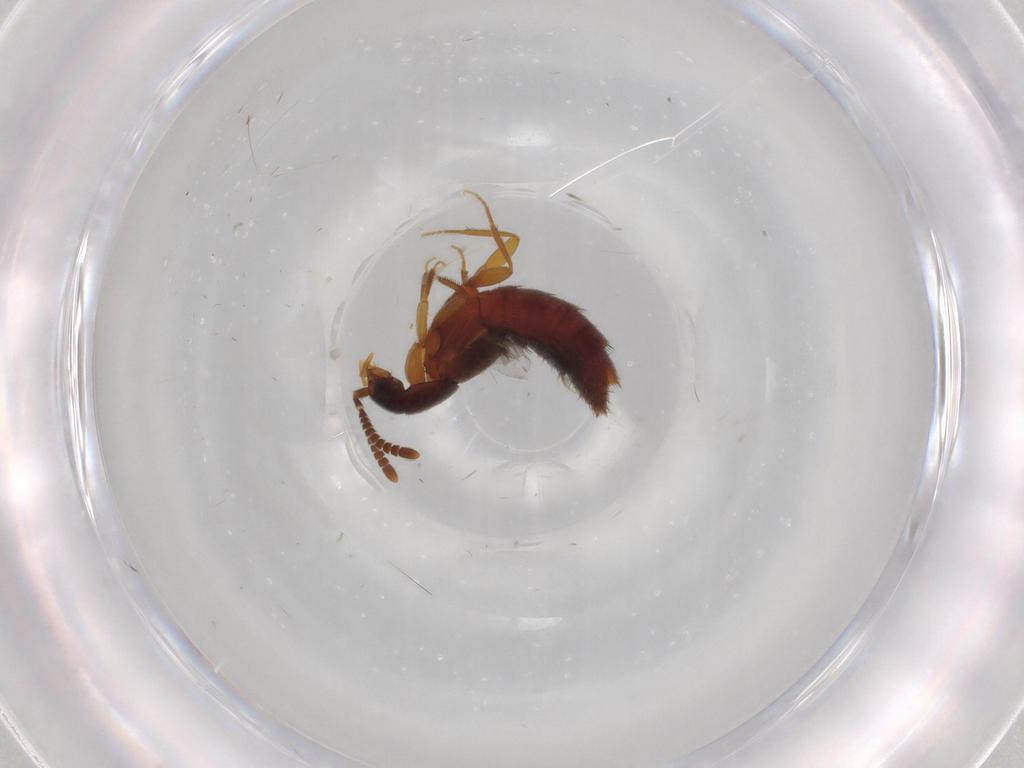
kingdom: Animalia
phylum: Arthropoda
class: Insecta
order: Coleoptera
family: Staphylinidae
